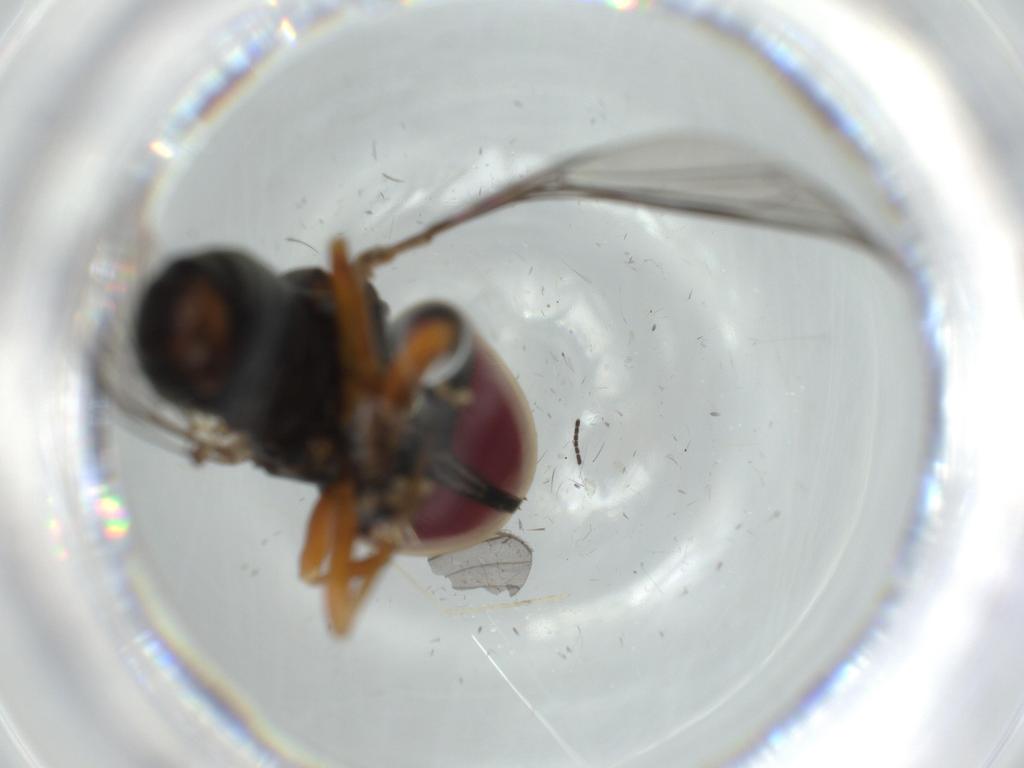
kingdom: Animalia
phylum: Arthropoda
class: Insecta
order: Diptera
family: Pipunculidae
